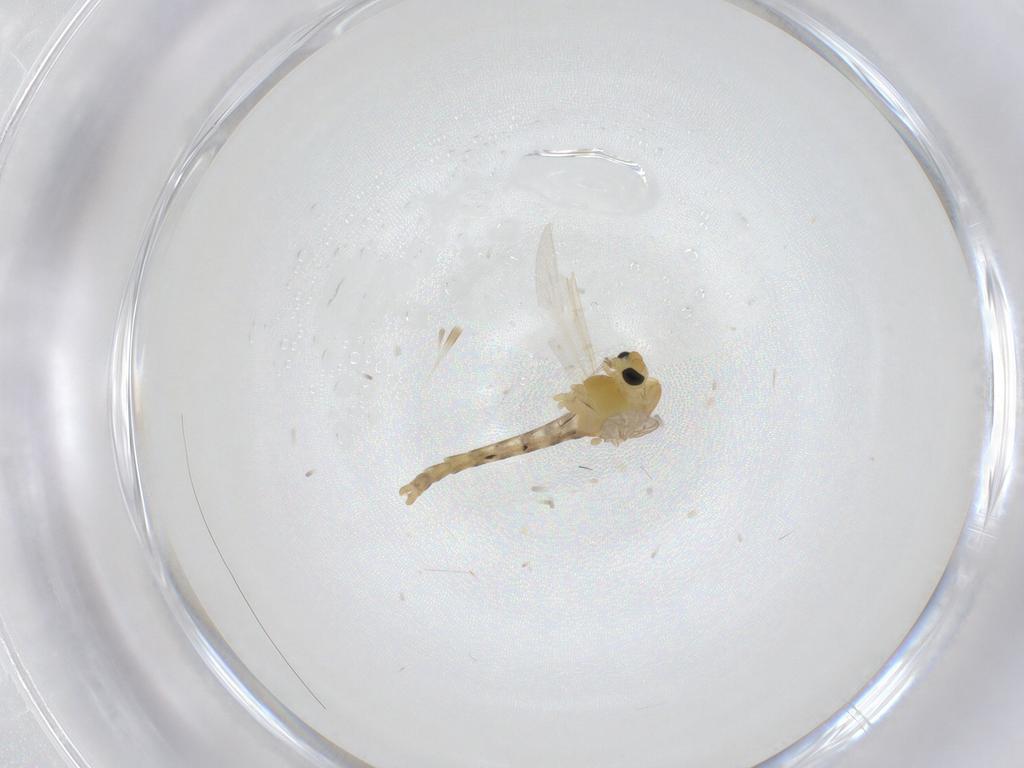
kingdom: Animalia
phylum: Arthropoda
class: Insecta
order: Diptera
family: Chironomidae
